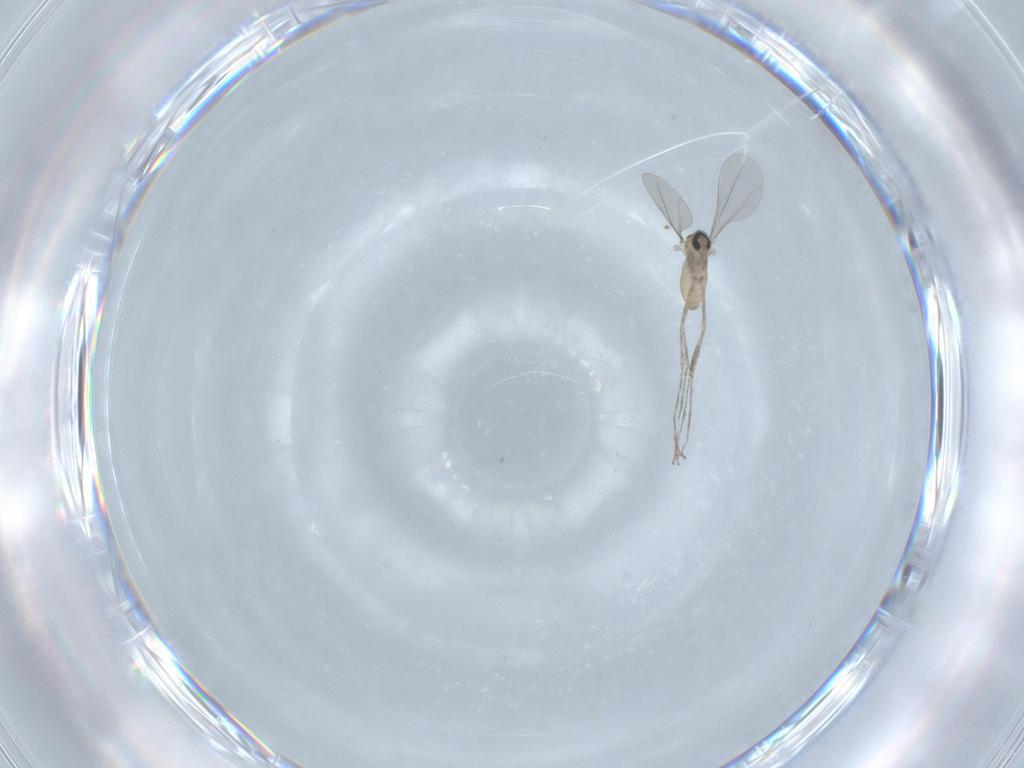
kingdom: Animalia
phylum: Arthropoda
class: Insecta
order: Diptera
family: Cecidomyiidae
